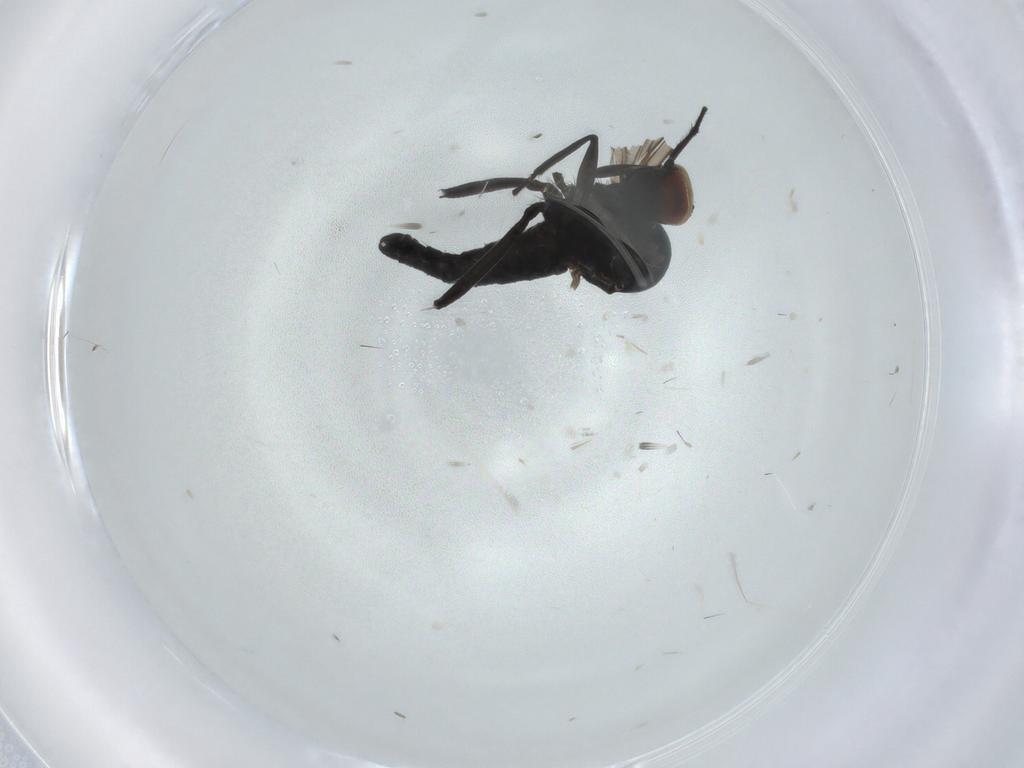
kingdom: Animalia
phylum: Arthropoda
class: Insecta
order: Diptera
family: Hybotidae
